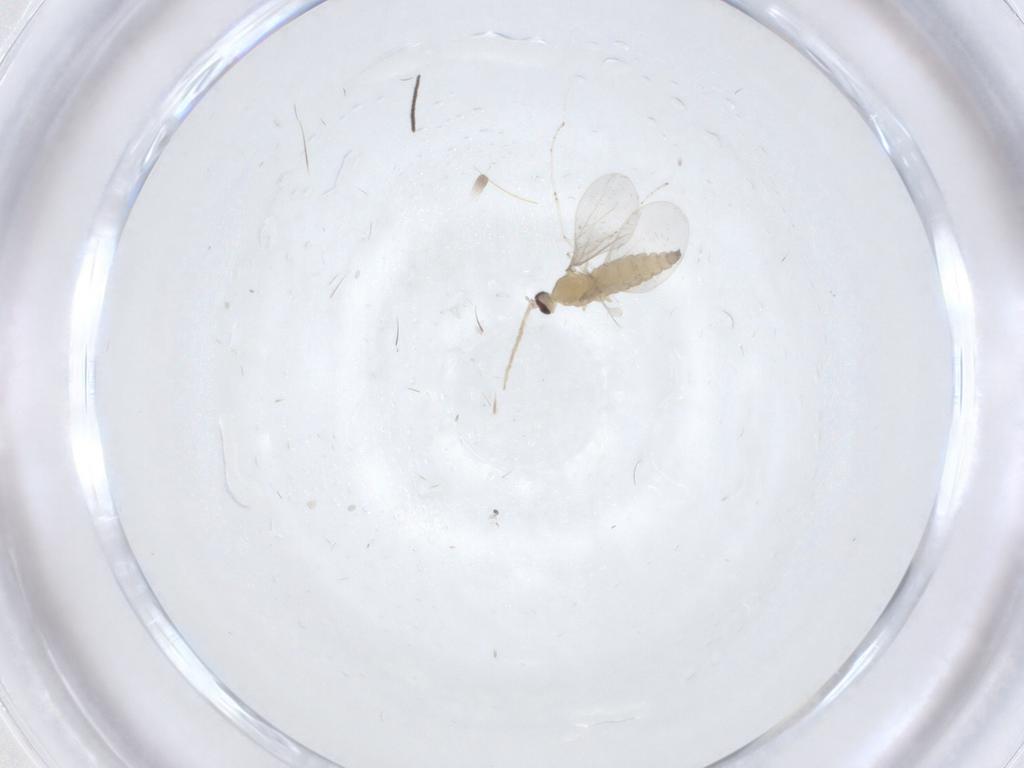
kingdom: Animalia
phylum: Arthropoda
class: Insecta
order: Diptera
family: Chironomidae
